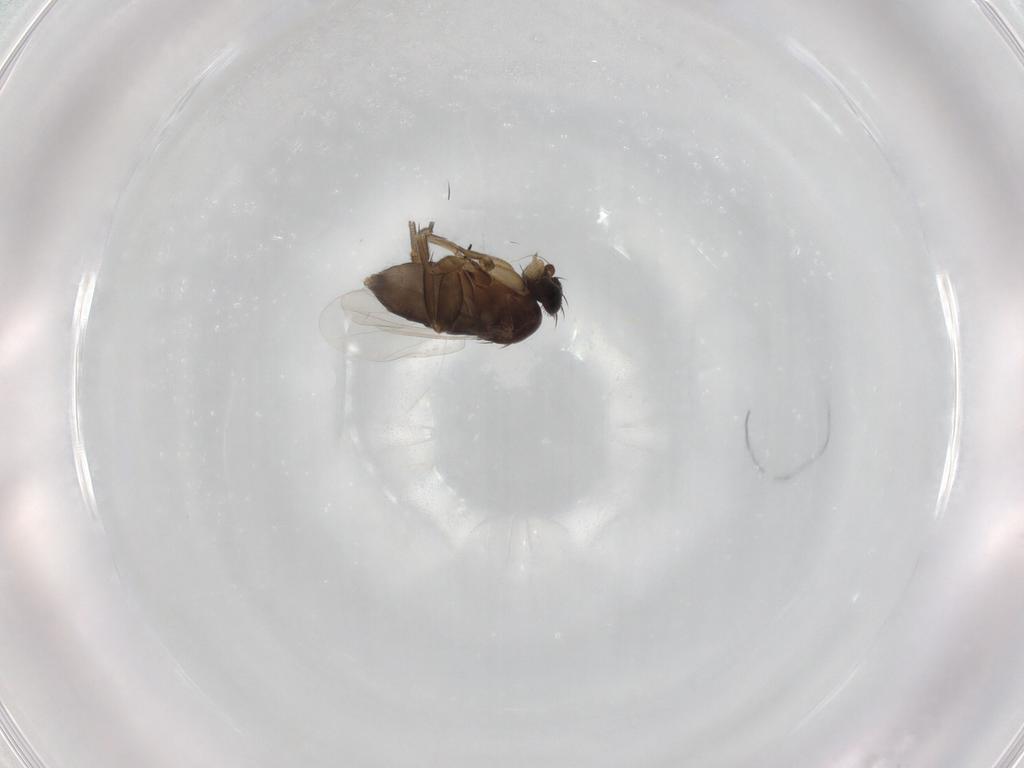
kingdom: Animalia
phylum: Arthropoda
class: Insecta
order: Diptera
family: Phoridae
